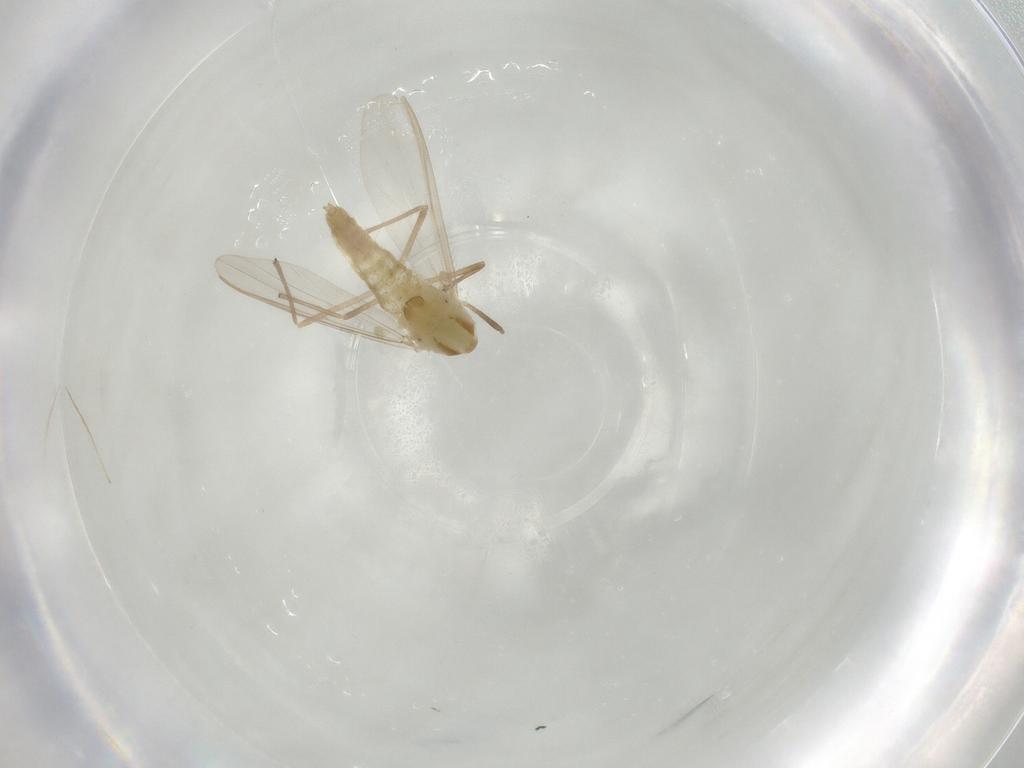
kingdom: Animalia
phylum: Arthropoda
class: Insecta
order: Diptera
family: Chironomidae
